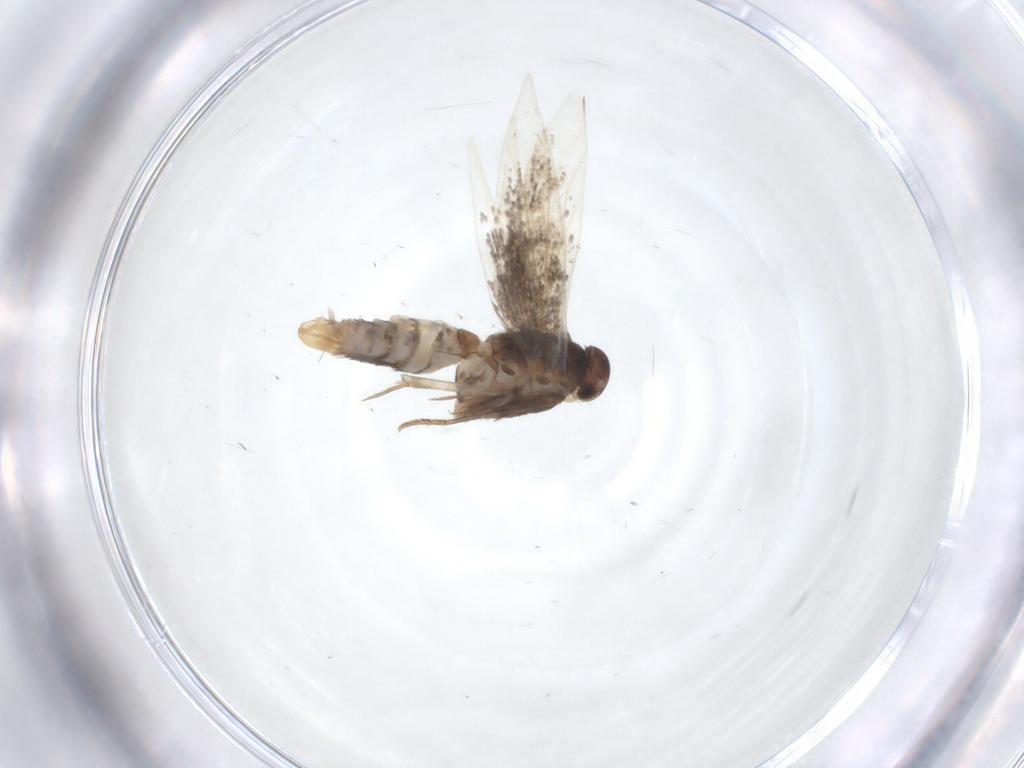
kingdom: Animalia
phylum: Arthropoda
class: Insecta
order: Lepidoptera
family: Elachistidae
